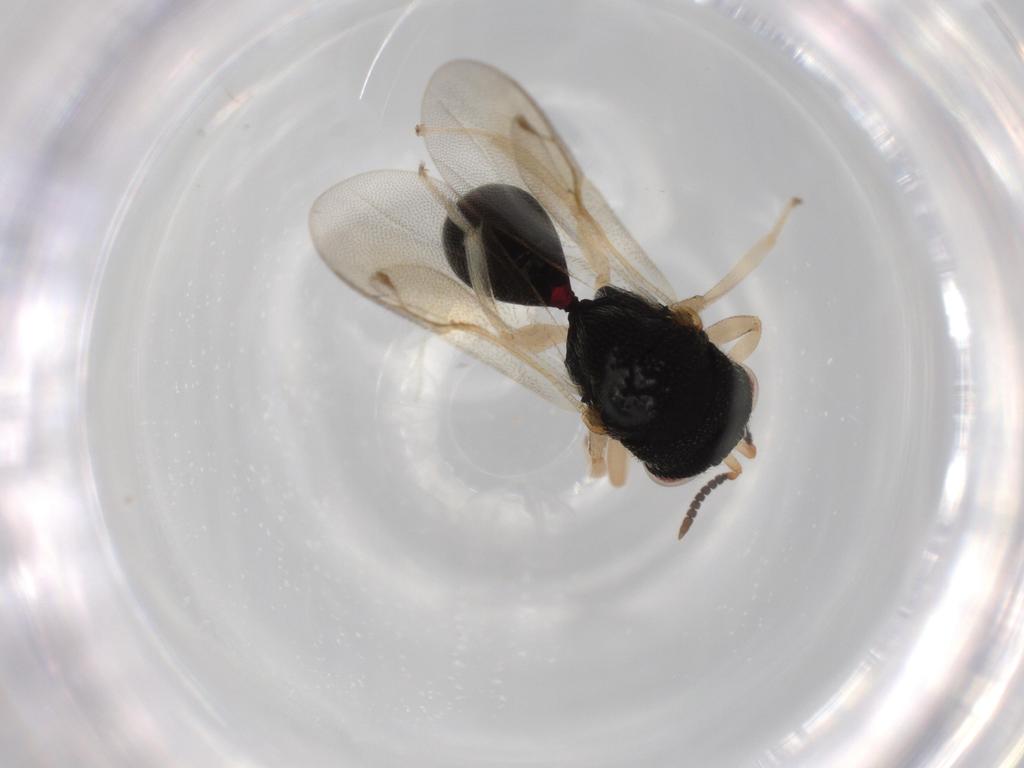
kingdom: Animalia
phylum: Arthropoda
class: Insecta
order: Hymenoptera
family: Eurytomidae
